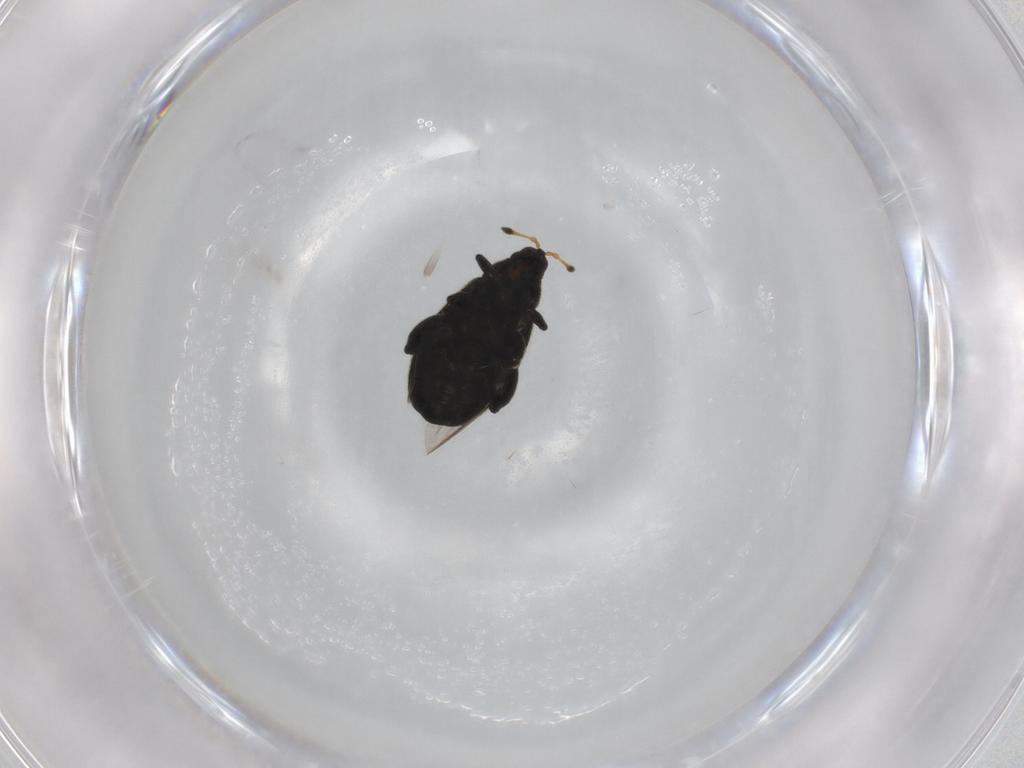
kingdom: Animalia
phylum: Arthropoda
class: Insecta
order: Coleoptera
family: Curculionidae
